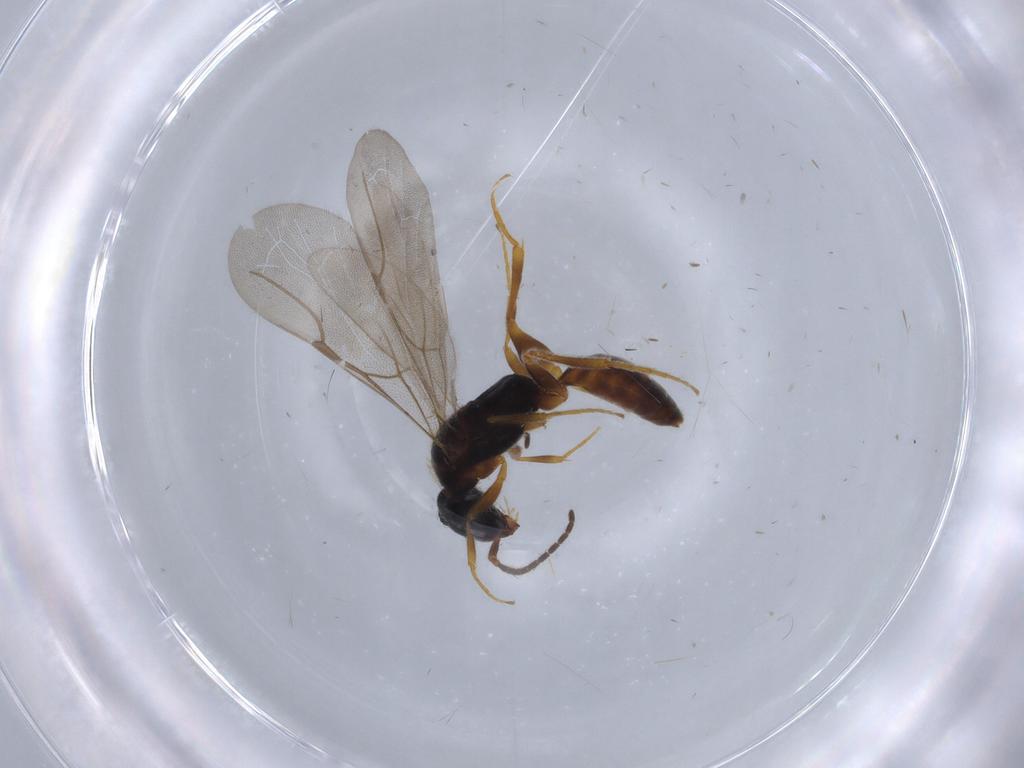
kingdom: Animalia
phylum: Arthropoda
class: Insecta
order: Hymenoptera
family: Bethylidae
